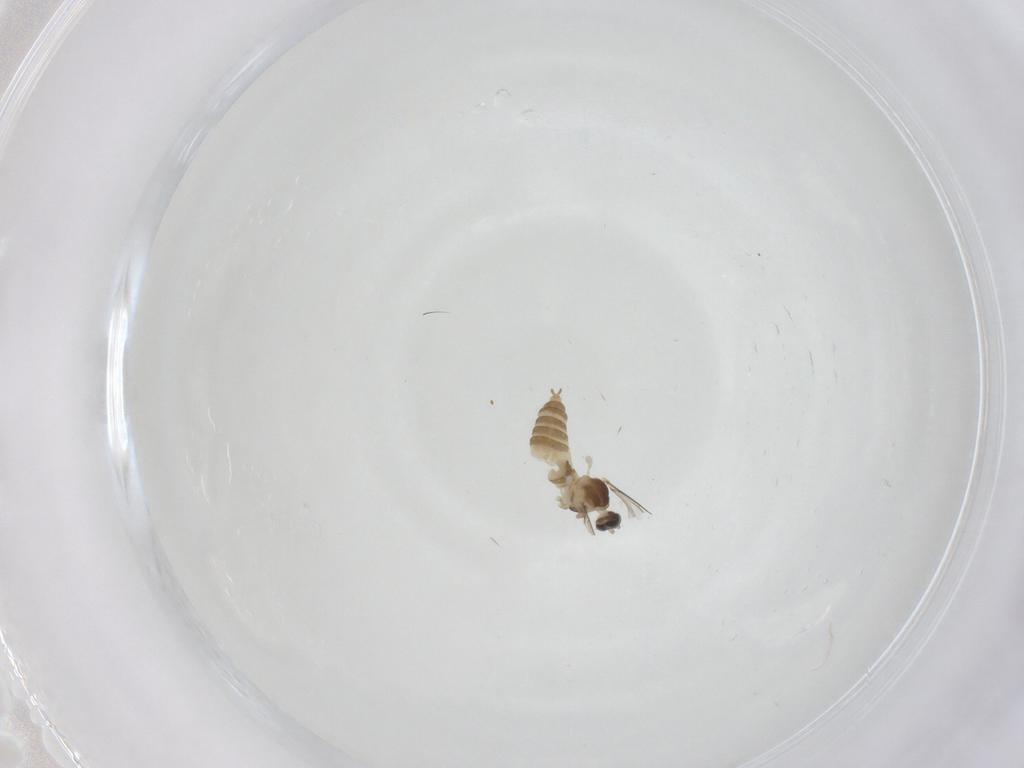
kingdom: Animalia
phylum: Arthropoda
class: Insecta
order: Diptera
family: Cecidomyiidae
